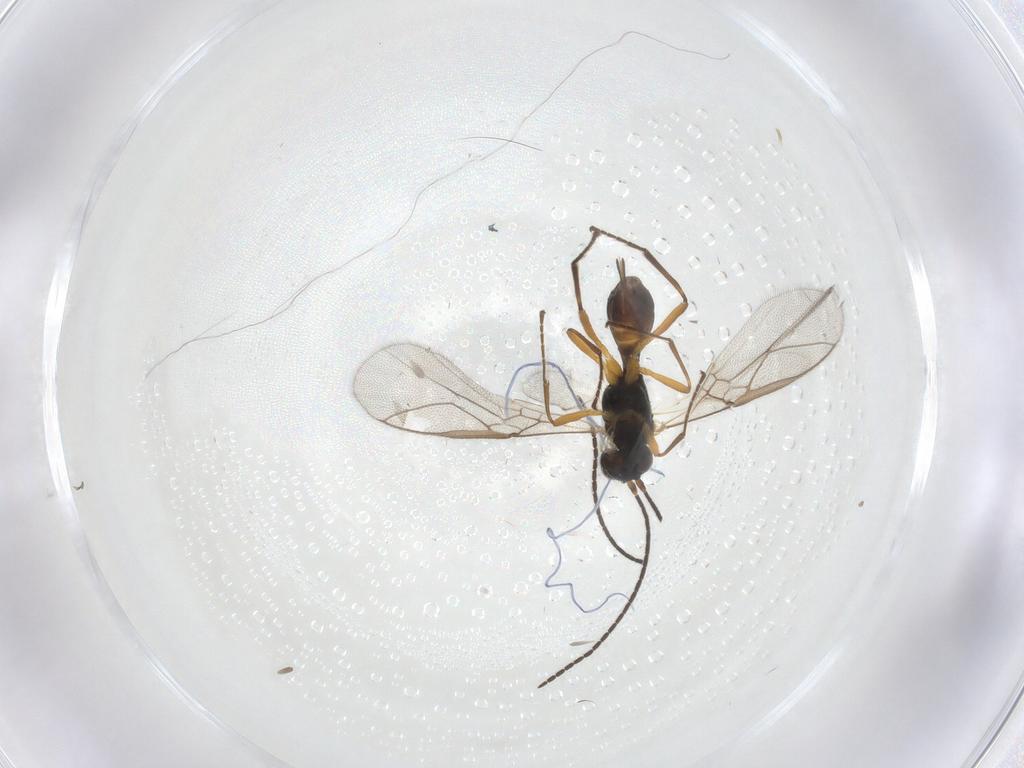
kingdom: Animalia
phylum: Arthropoda
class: Insecta
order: Hymenoptera
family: Braconidae
